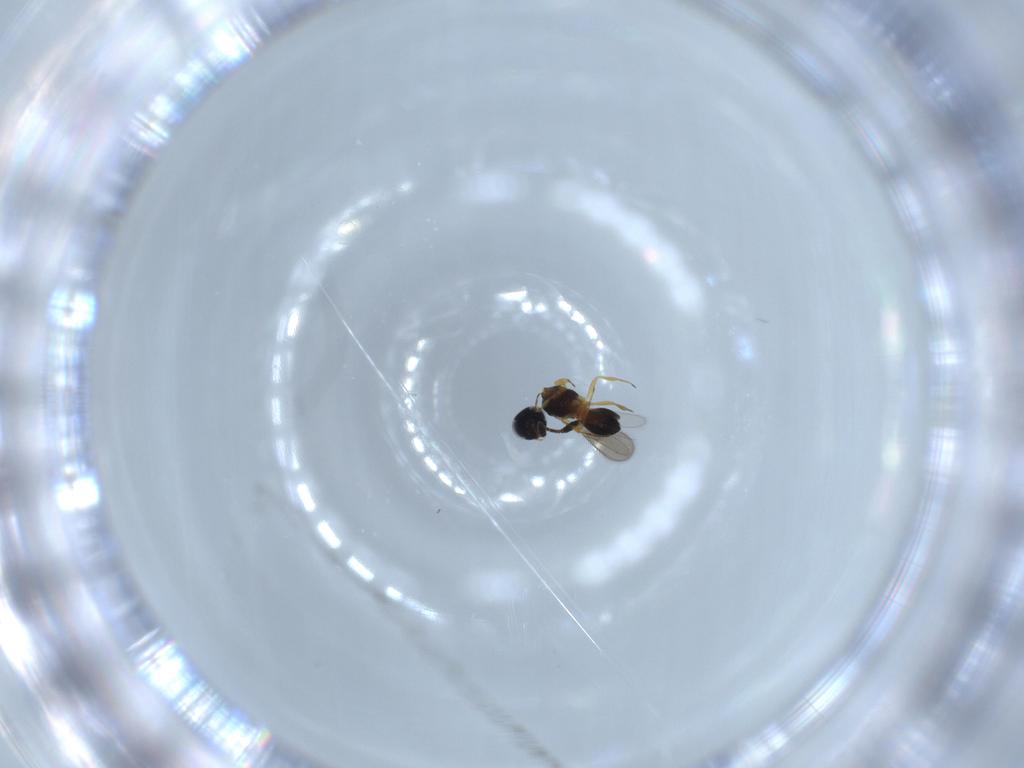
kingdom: Animalia
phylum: Arthropoda
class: Insecta
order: Hymenoptera
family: Scelionidae
